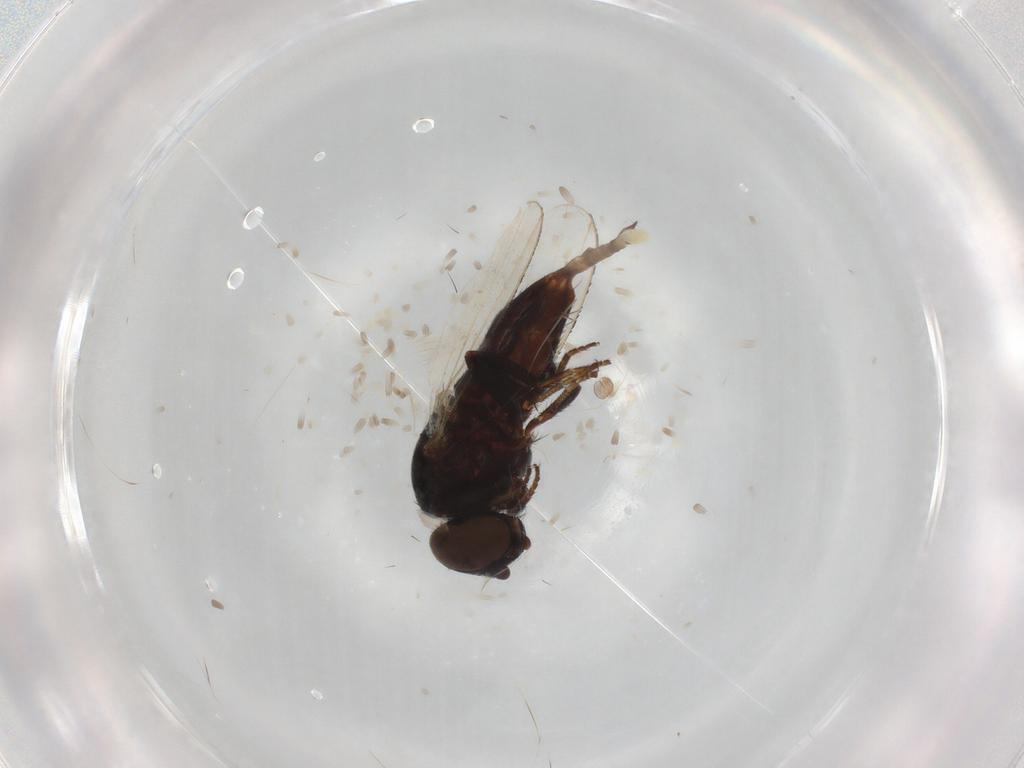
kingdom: Animalia
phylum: Arthropoda
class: Insecta
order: Diptera
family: Milichiidae
